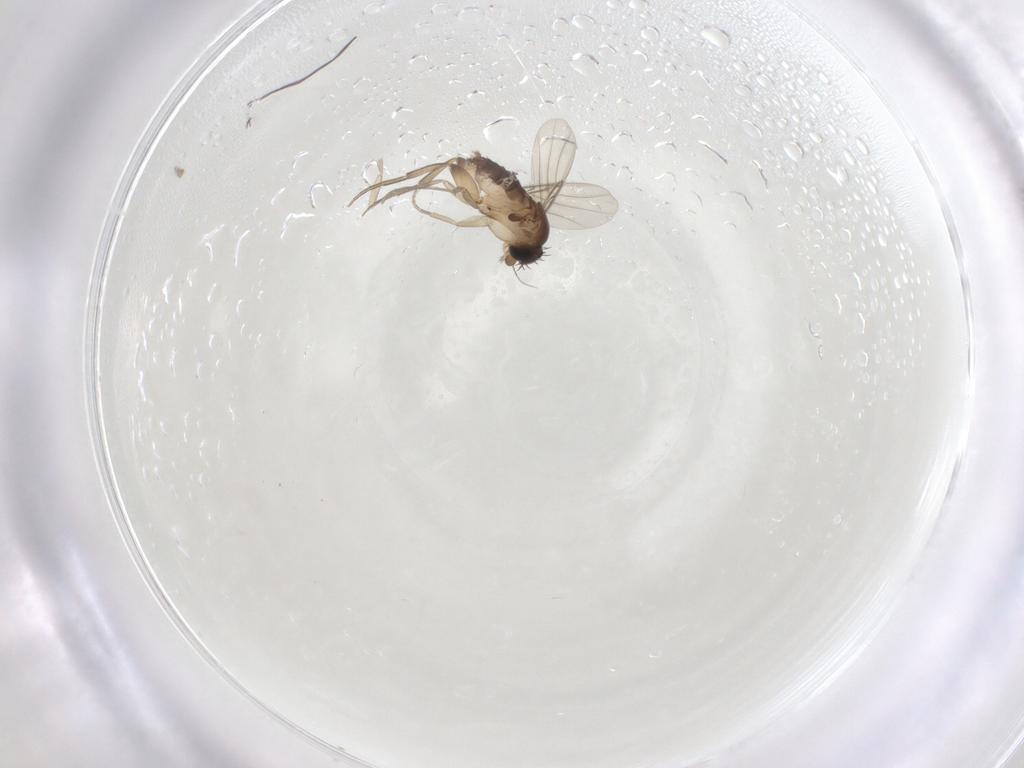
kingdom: Animalia
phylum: Arthropoda
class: Insecta
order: Diptera
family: Phoridae
